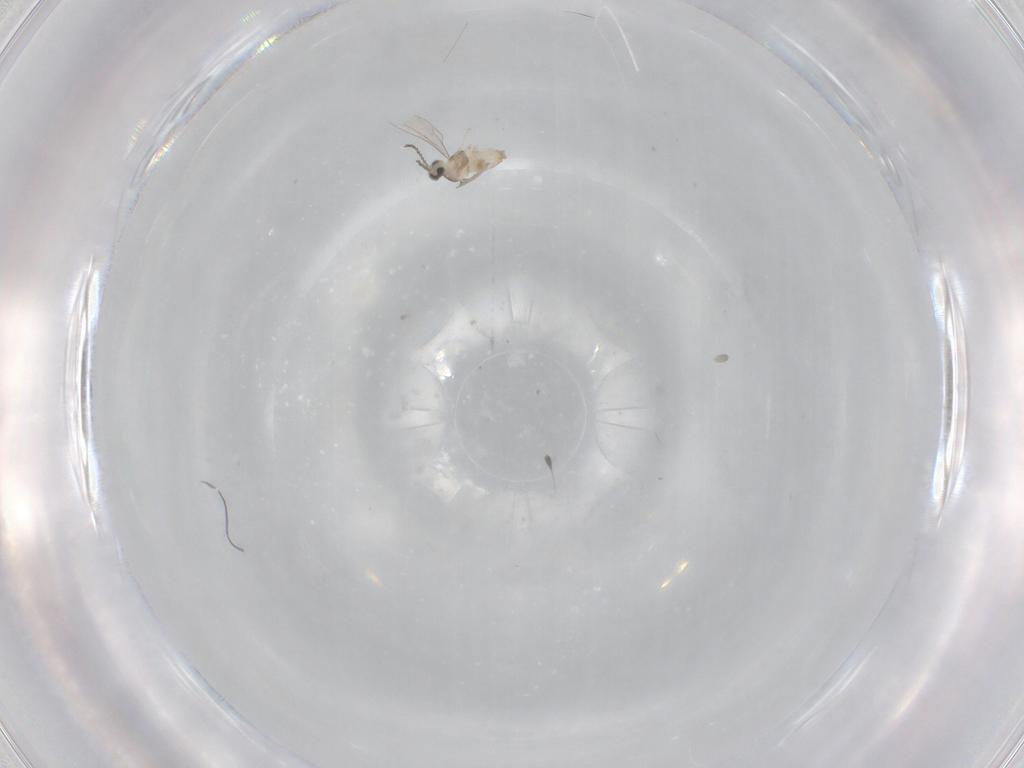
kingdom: Animalia
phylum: Arthropoda
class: Insecta
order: Diptera
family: Cecidomyiidae
